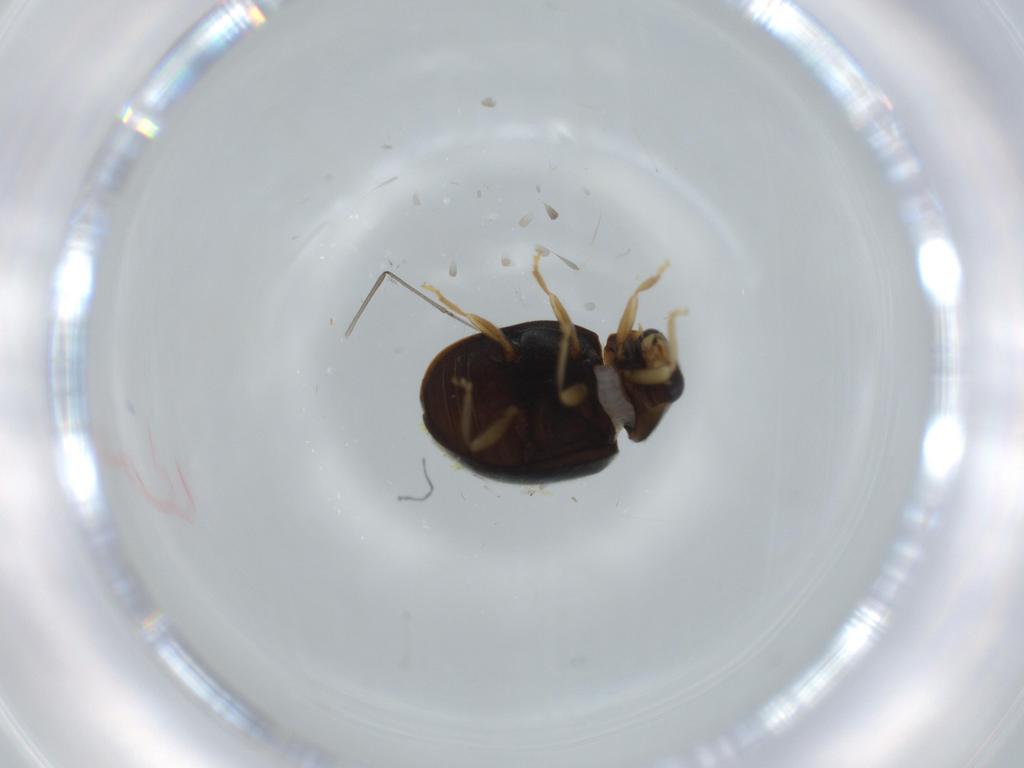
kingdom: Animalia
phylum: Arthropoda
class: Insecta
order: Coleoptera
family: Coccinellidae
